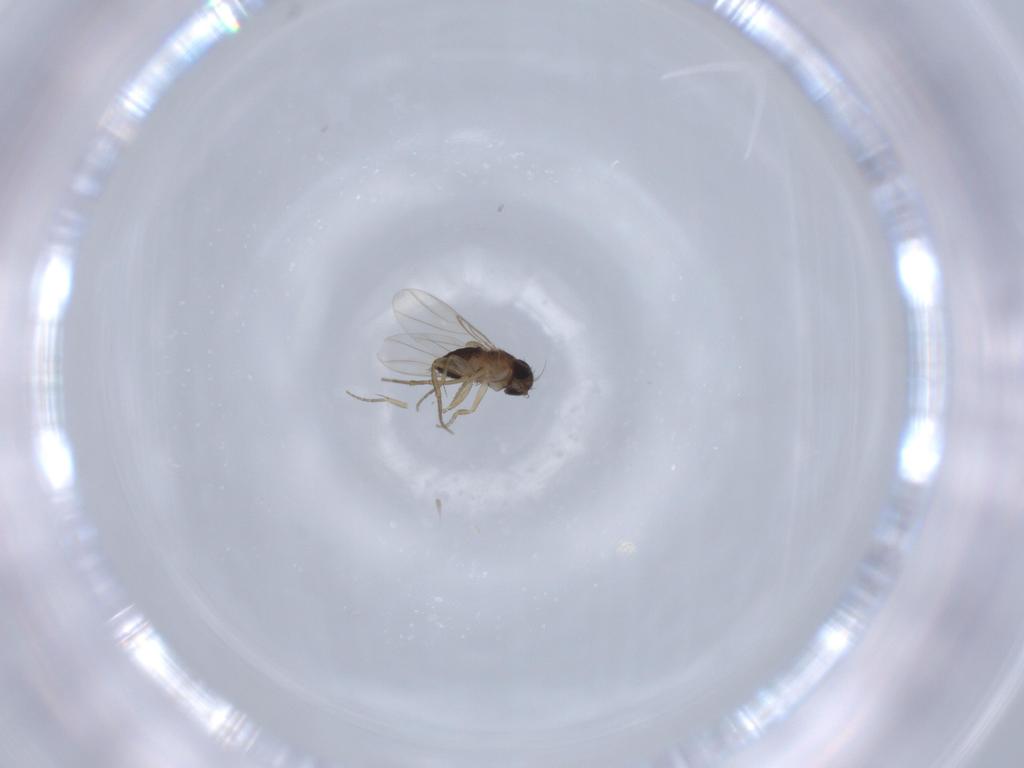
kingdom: Animalia
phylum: Arthropoda
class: Insecta
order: Diptera
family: Phoridae
